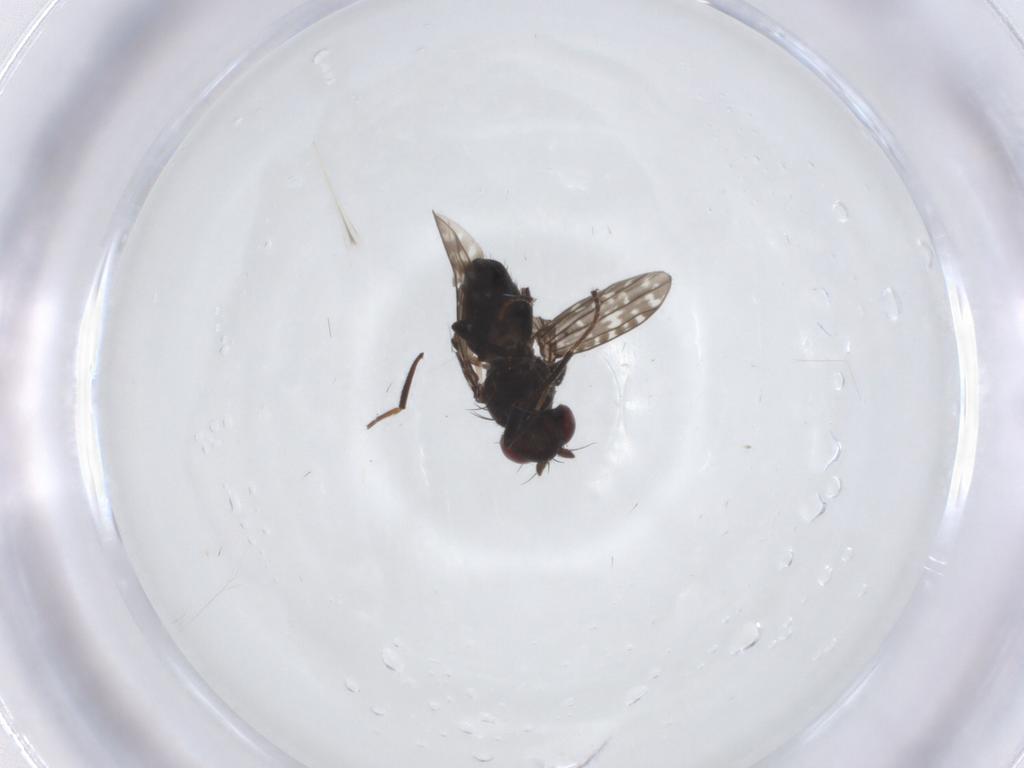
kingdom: Animalia
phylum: Arthropoda
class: Insecta
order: Diptera
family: Ephydridae
